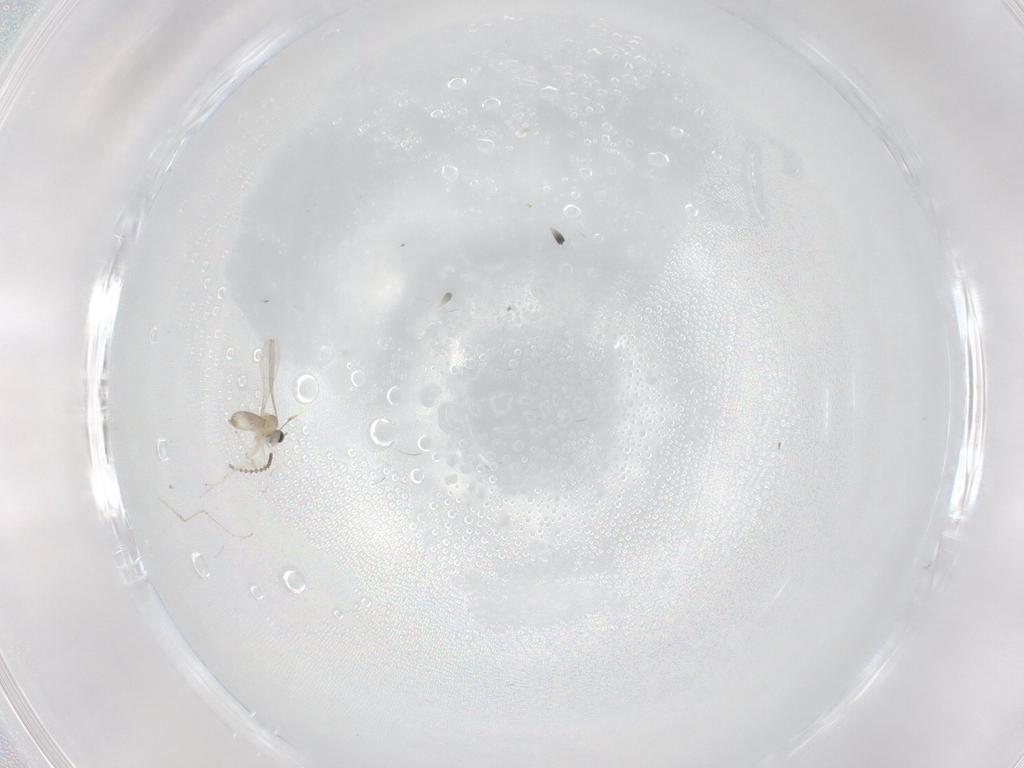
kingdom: Animalia
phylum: Arthropoda
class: Insecta
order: Diptera
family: Cecidomyiidae
